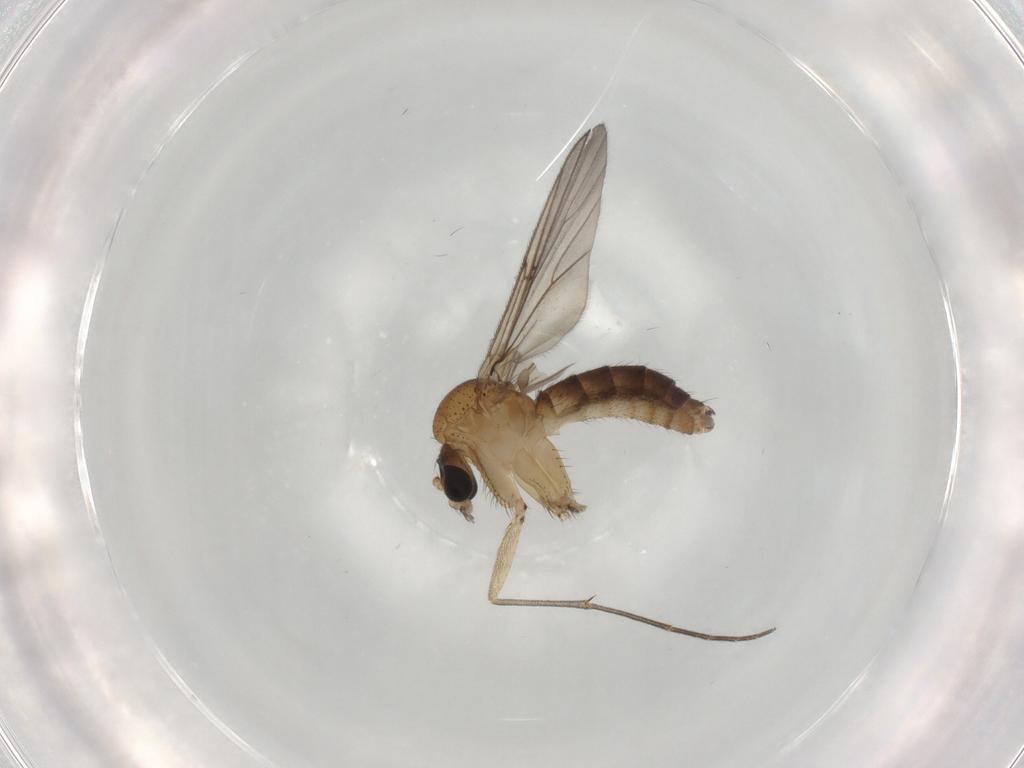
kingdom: Animalia
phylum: Arthropoda
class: Insecta
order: Diptera
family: Mycetophilidae
